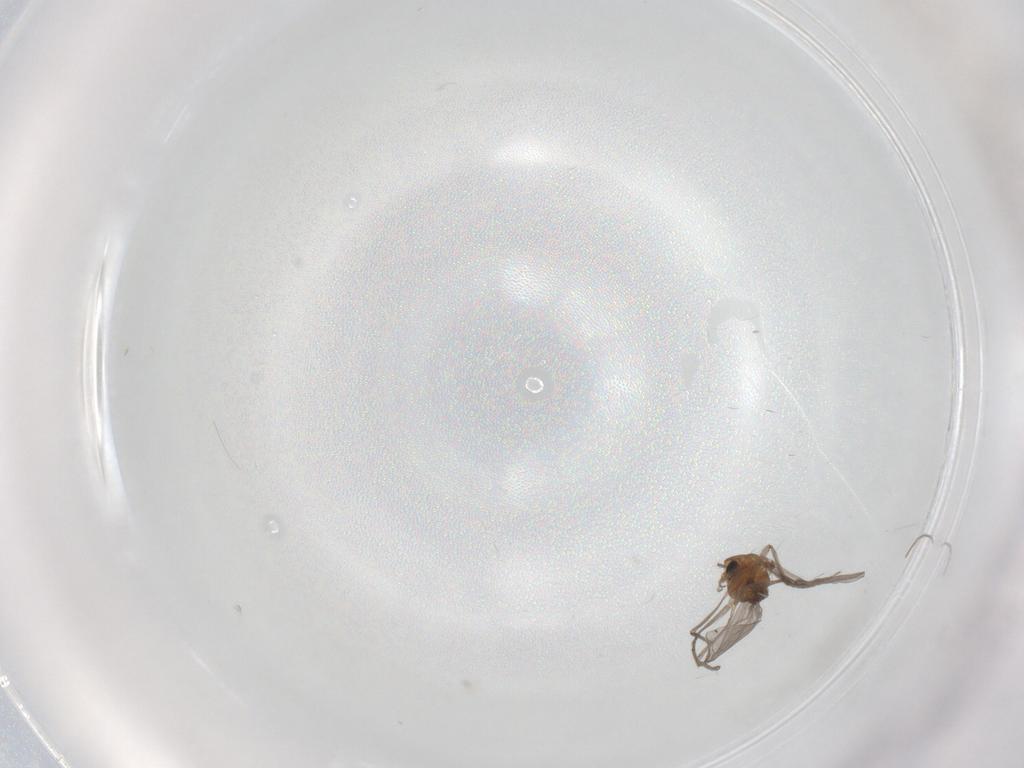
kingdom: Animalia
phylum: Arthropoda
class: Insecta
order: Diptera
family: Chironomidae
